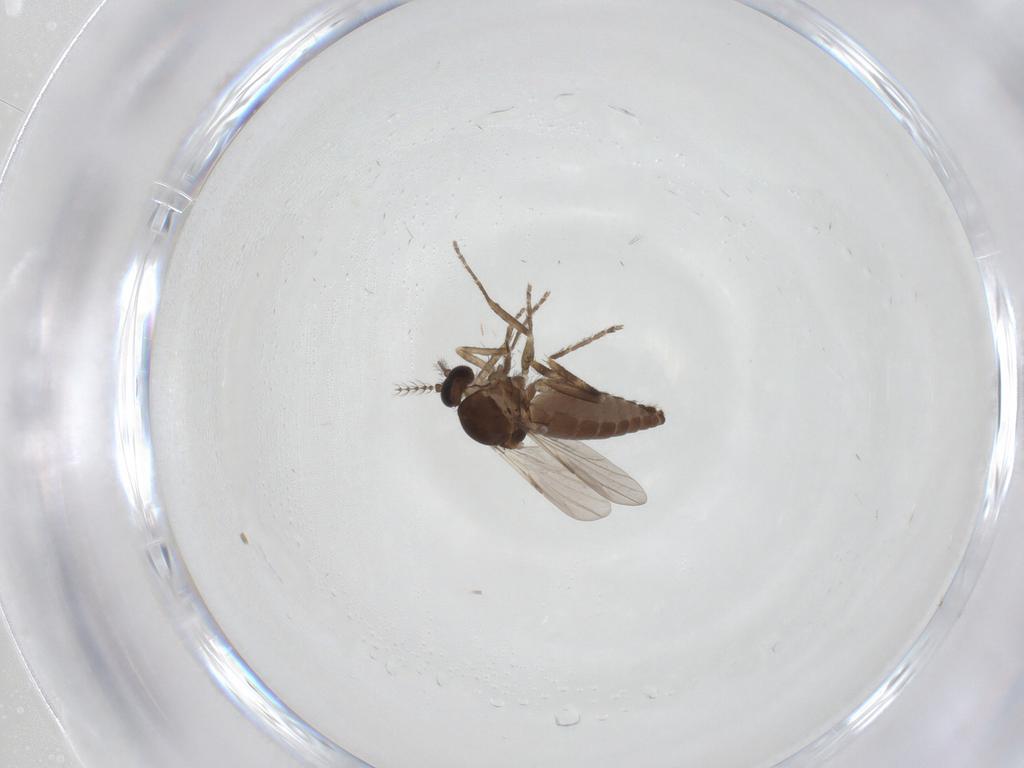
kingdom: Animalia
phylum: Arthropoda
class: Insecta
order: Diptera
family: Ceratopogonidae
